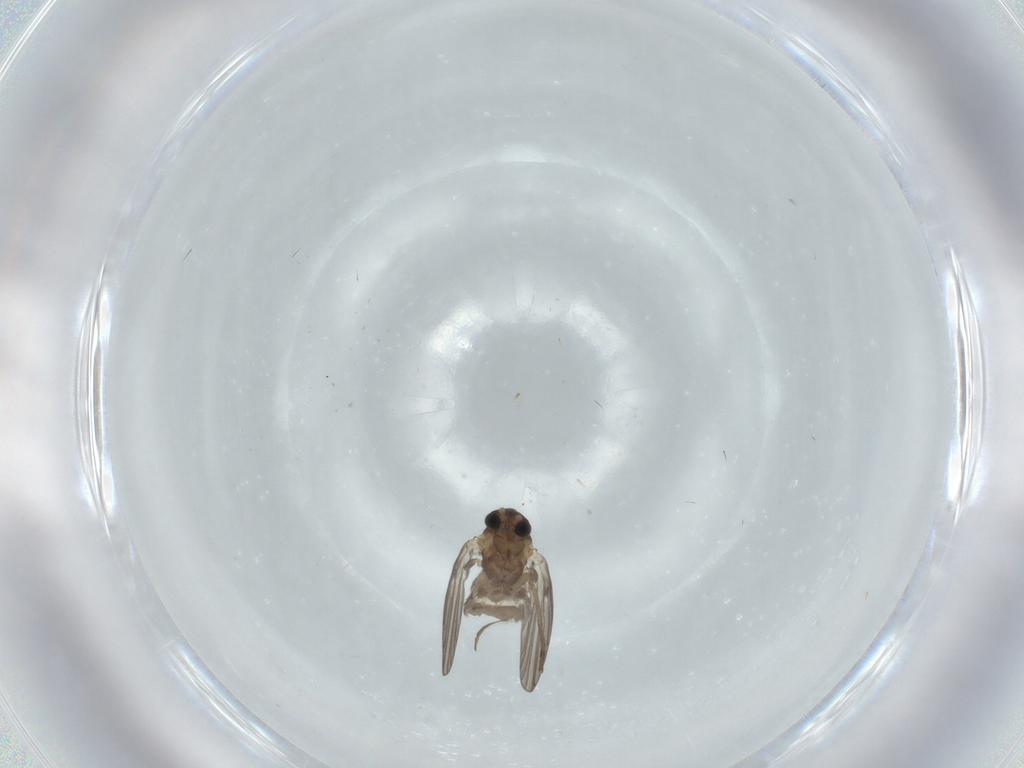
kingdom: Animalia
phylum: Arthropoda
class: Insecta
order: Diptera
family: Cecidomyiidae
